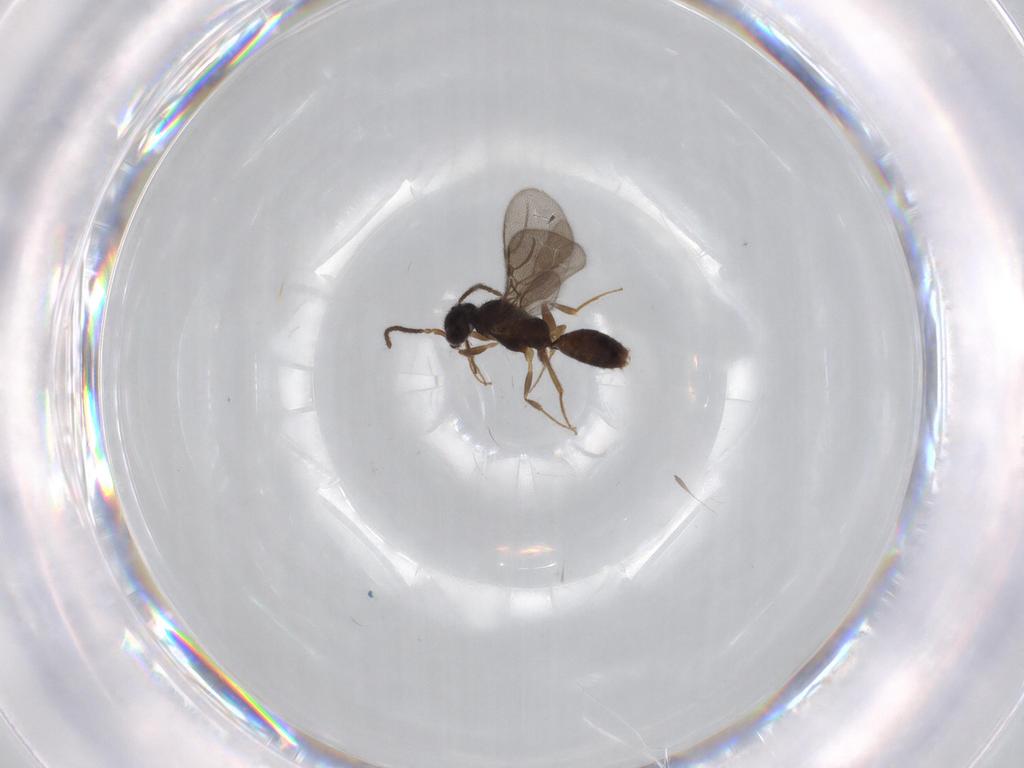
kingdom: Animalia
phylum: Arthropoda
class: Insecta
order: Hymenoptera
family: Bethylidae
